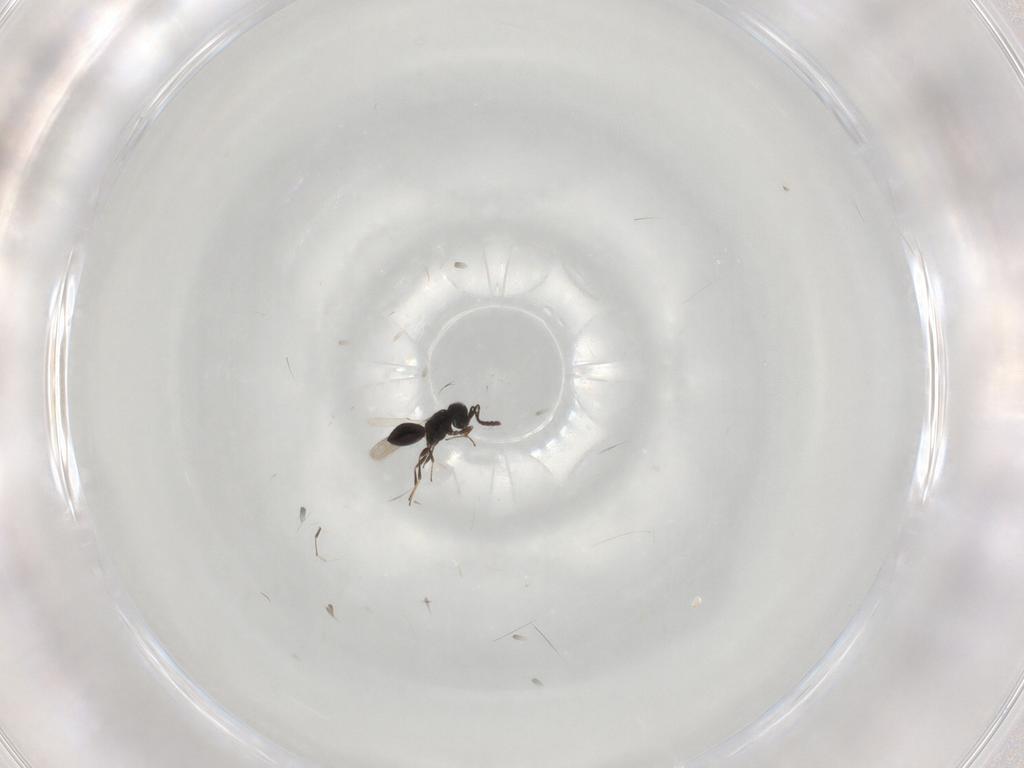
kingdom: Animalia
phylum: Arthropoda
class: Insecta
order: Hymenoptera
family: Scelionidae
